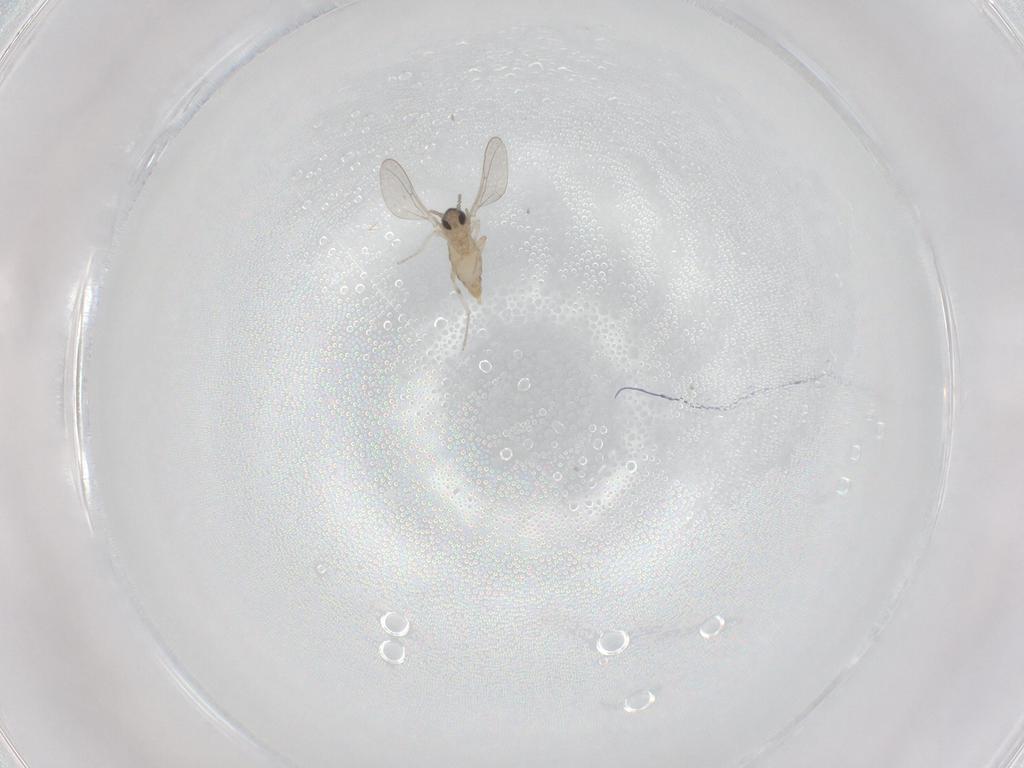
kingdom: Animalia
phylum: Arthropoda
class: Insecta
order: Diptera
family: Cecidomyiidae
